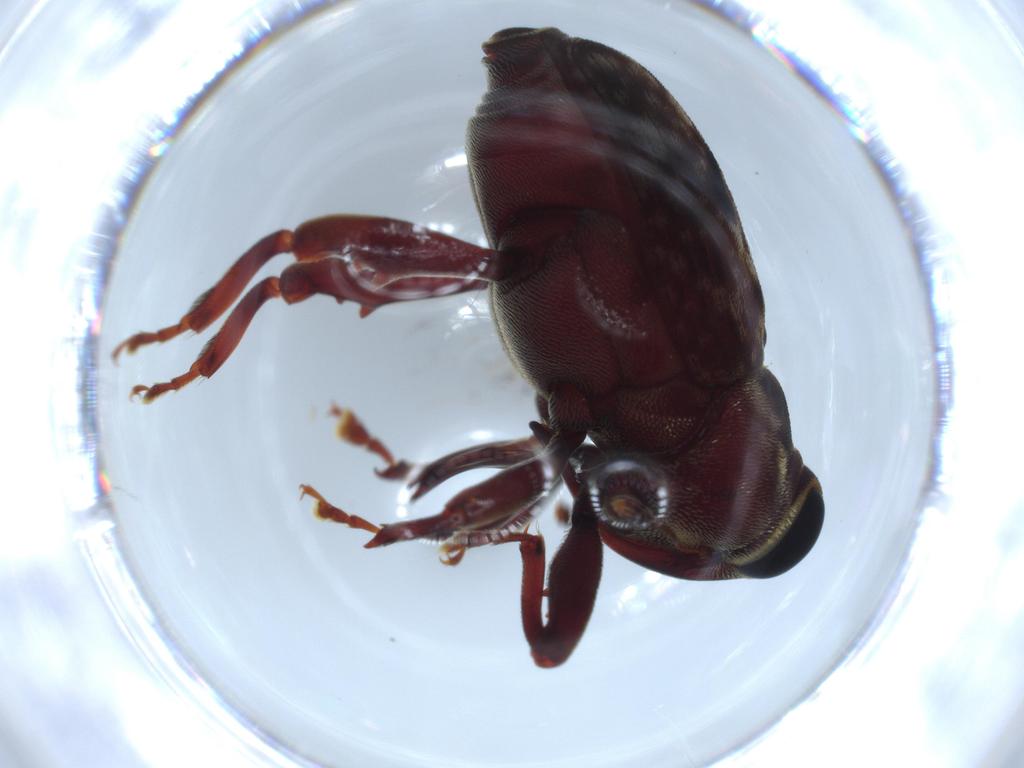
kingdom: Animalia
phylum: Arthropoda
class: Insecta
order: Coleoptera
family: Curculionidae
